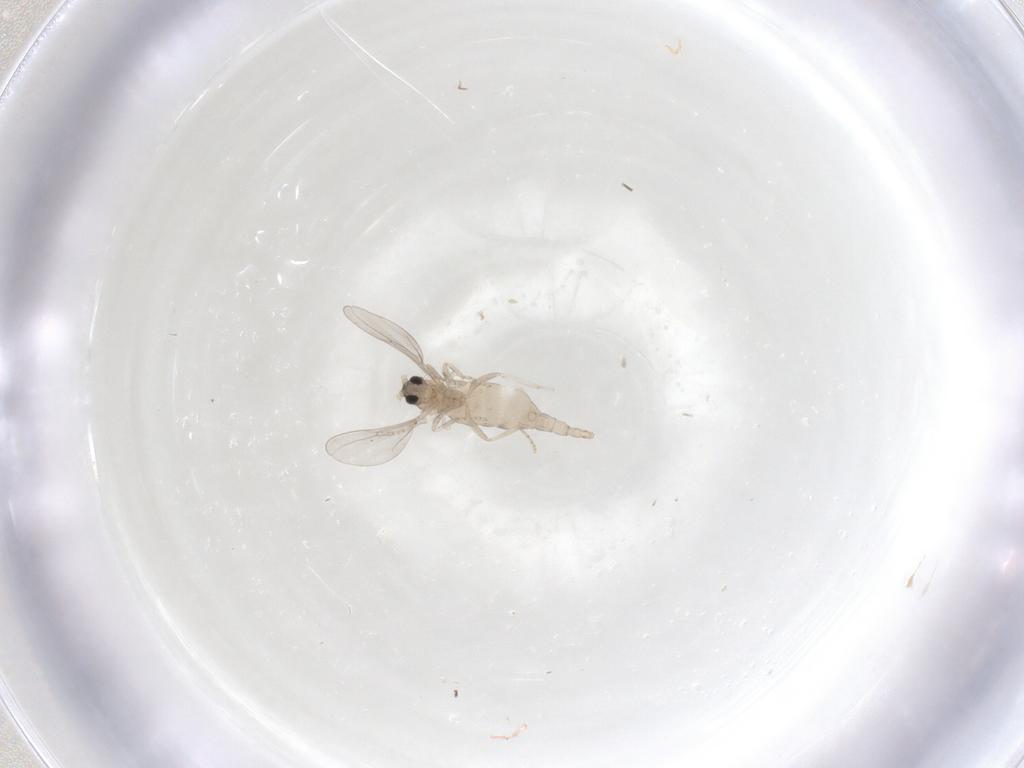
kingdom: Animalia
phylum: Arthropoda
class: Insecta
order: Diptera
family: Cecidomyiidae
